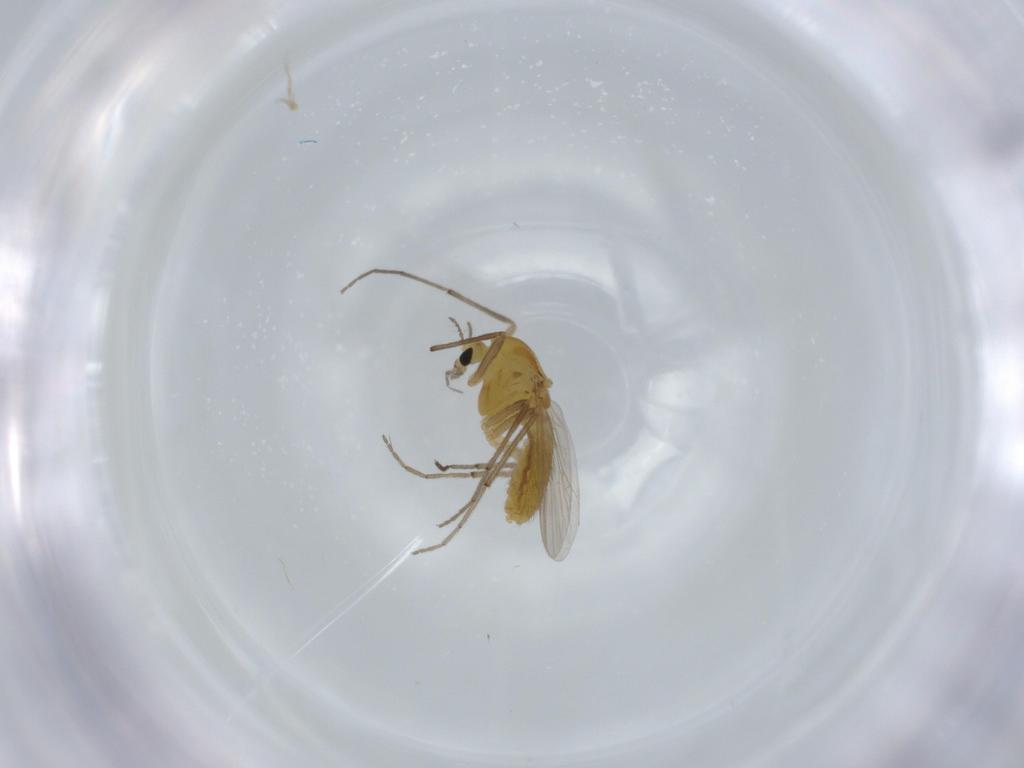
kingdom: Animalia
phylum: Arthropoda
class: Insecta
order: Diptera
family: Chironomidae
